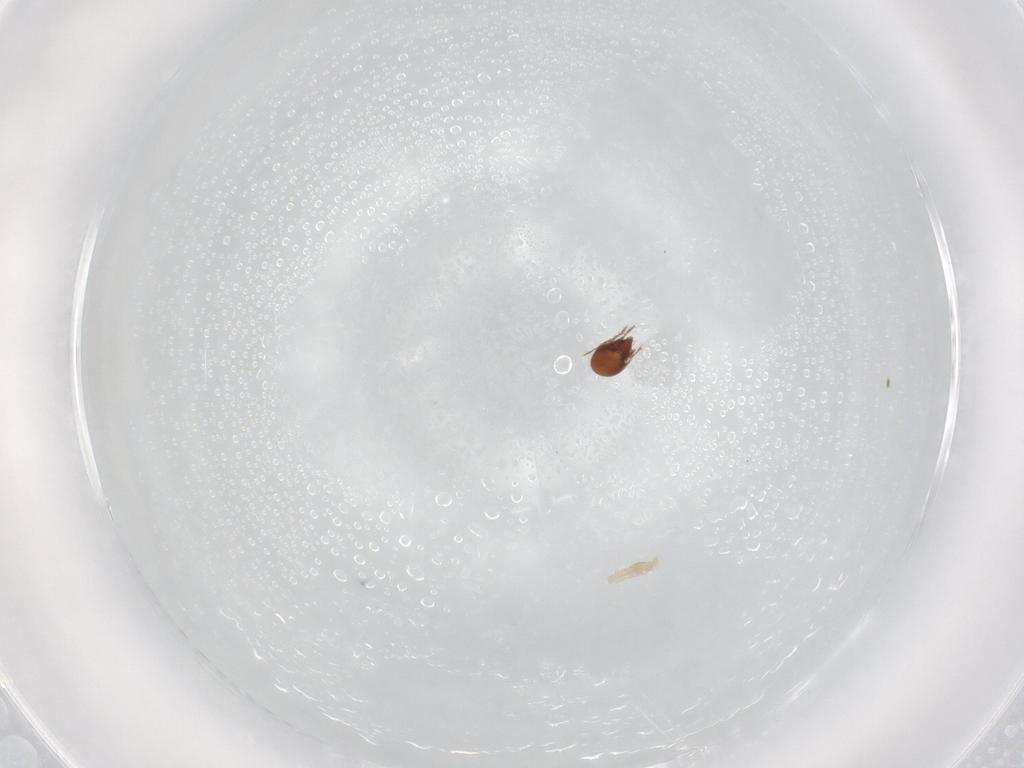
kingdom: Animalia
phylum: Arthropoda
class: Arachnida
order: Sarcoptiformes
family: Ceratozetidae
